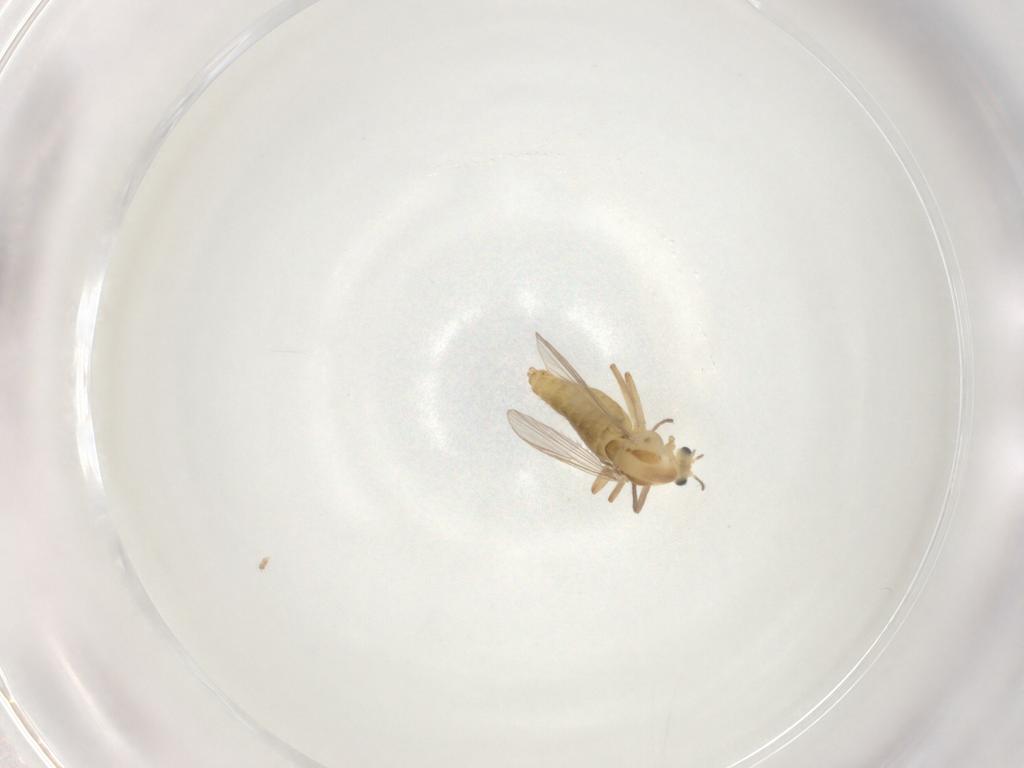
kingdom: Animalia
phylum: Arthropoda
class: Insecta
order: Diptera
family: Cecidomyiidae
